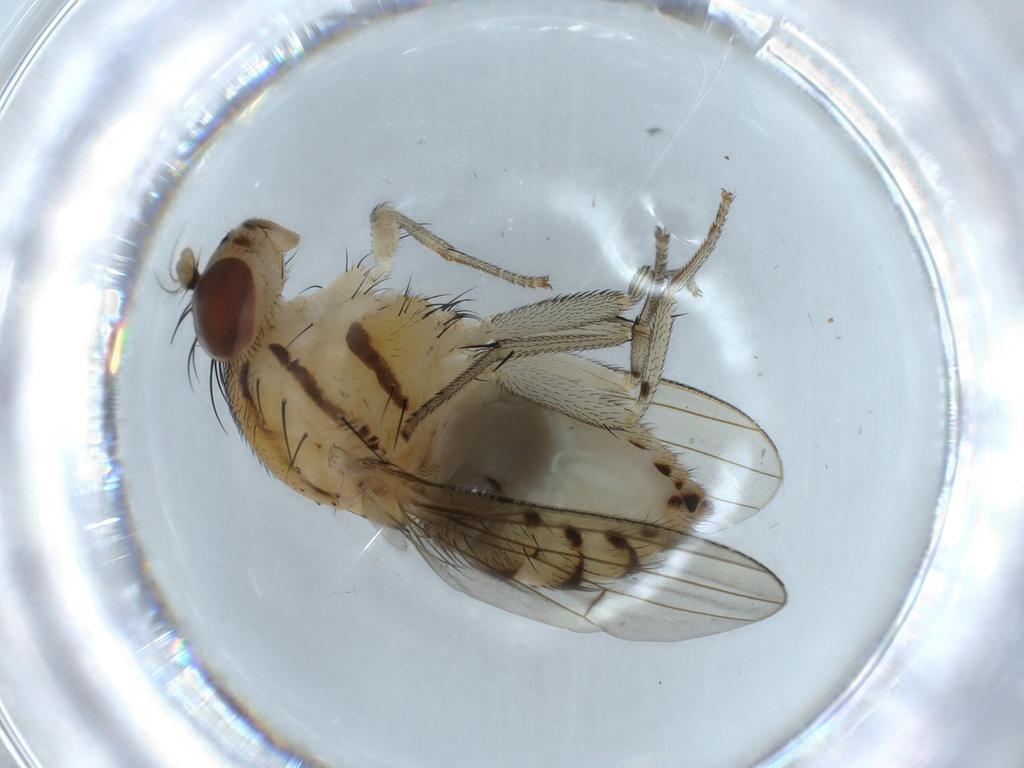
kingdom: Animalia
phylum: Arthropoda
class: Insecta
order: Diptera
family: Lauxaniidae
